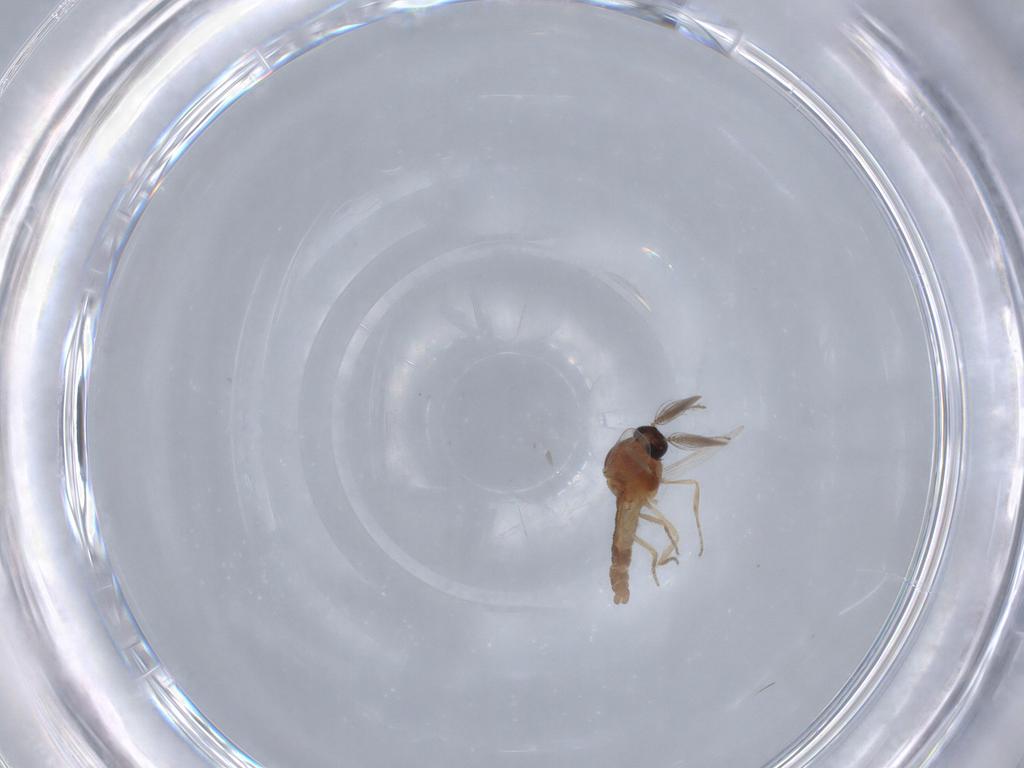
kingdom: Animalia
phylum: Arthropoda
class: Insecta
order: Diptera
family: Ceratopogonidae
